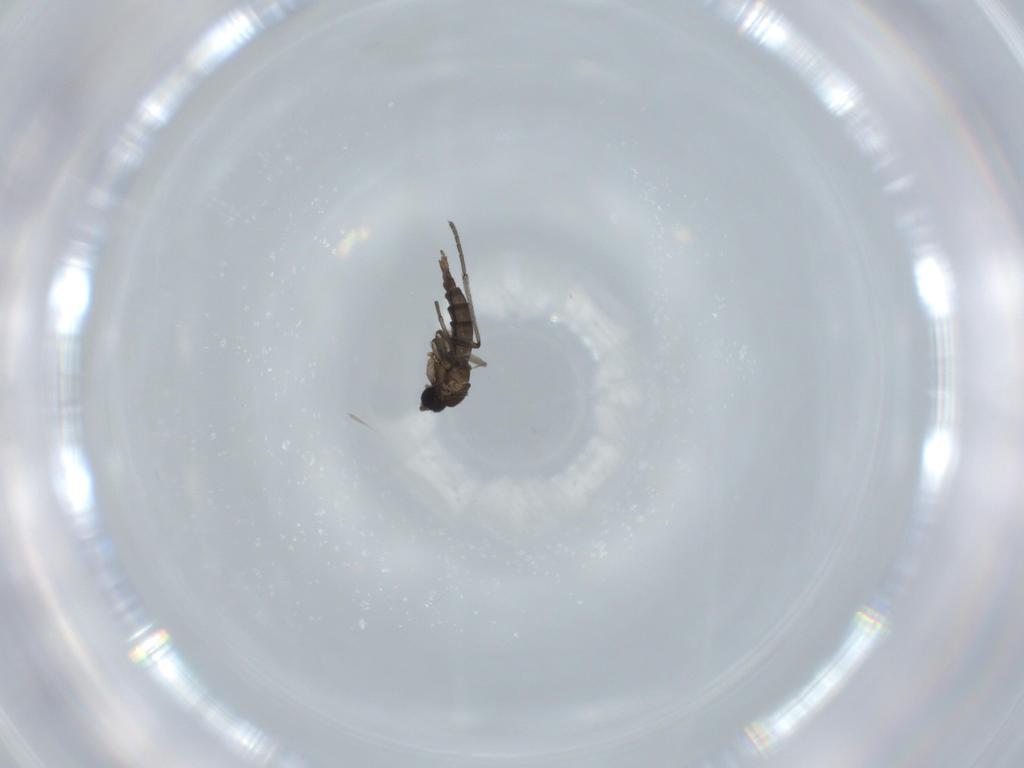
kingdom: Animalia
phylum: Arthropoda
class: Insecta
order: Diptera
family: Sciaridae
